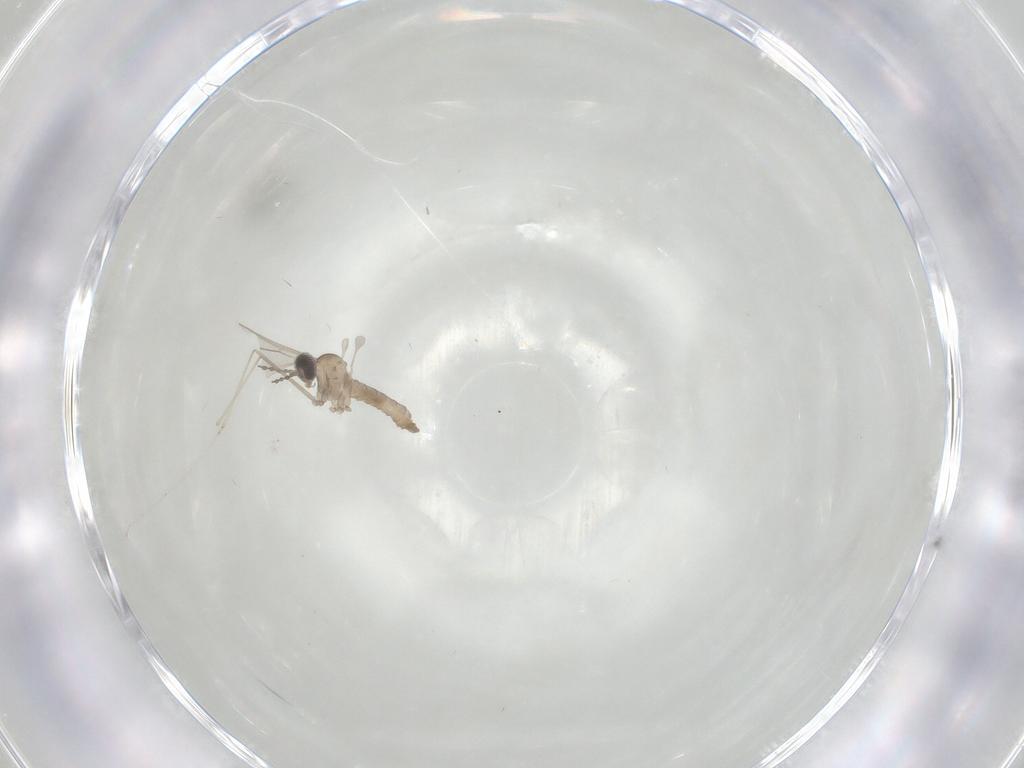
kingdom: Animalia
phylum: Arthropoda
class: Insecta
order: Diptera
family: Cecidomyiidae
